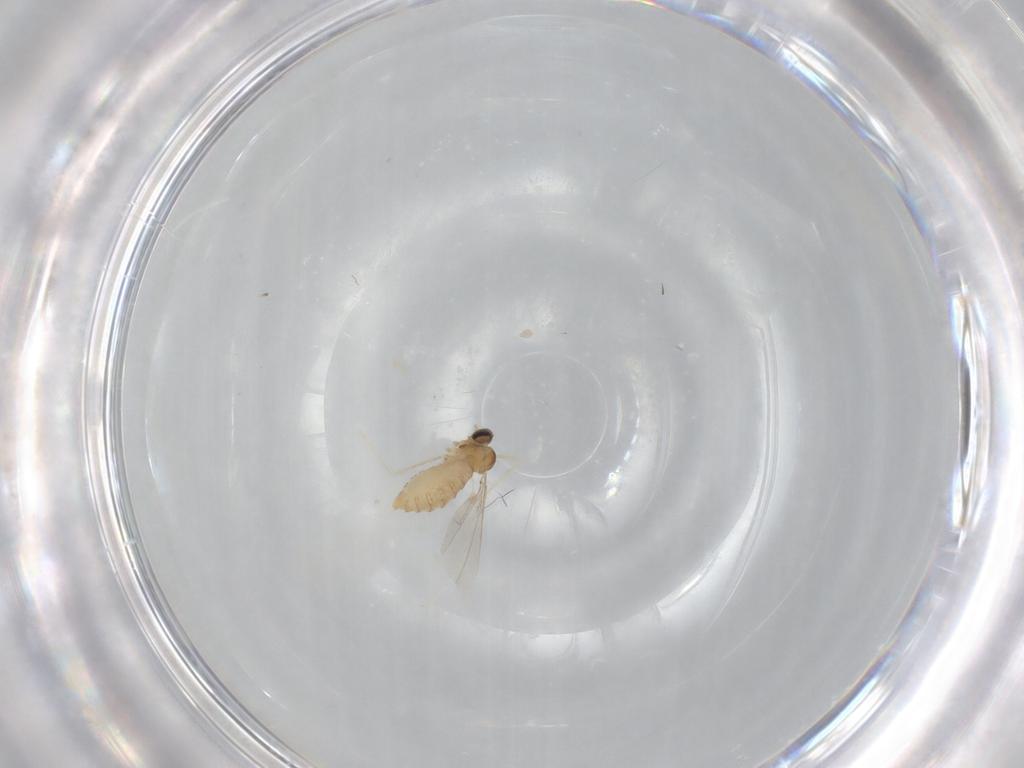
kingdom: Animalia
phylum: Arthropoda
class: Insecta
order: Diptera
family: Cecidomyiidae
